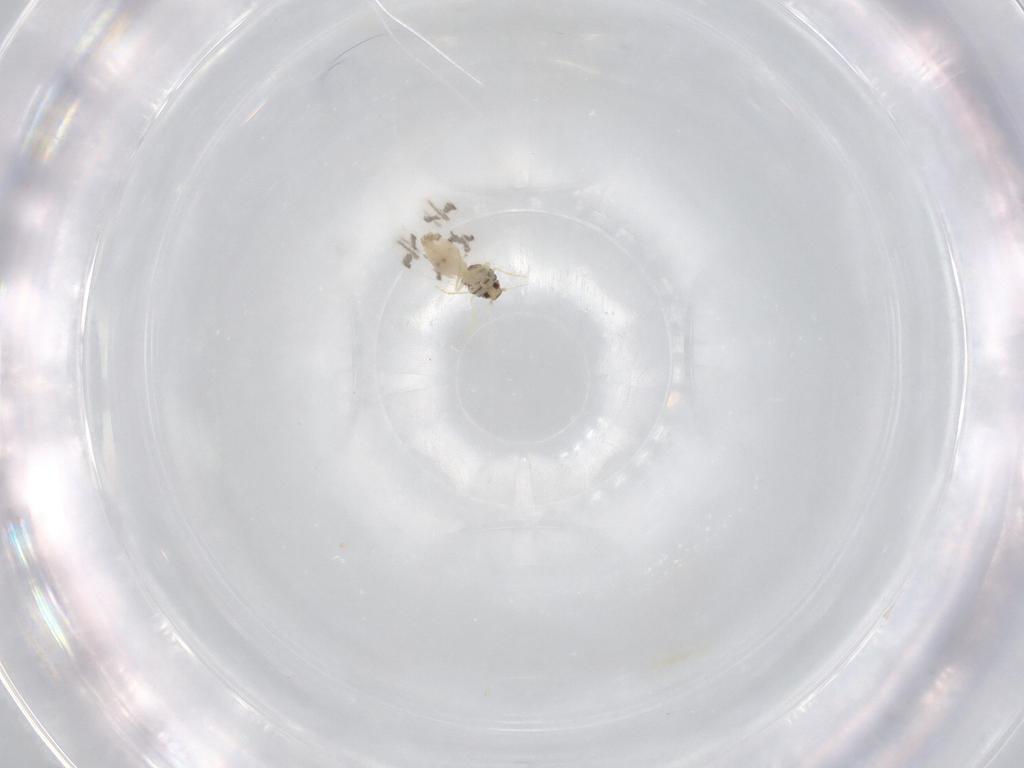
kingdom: Animalia
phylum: Arthropoda
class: Insecta
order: Hemiptera
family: Aleyrodidae
